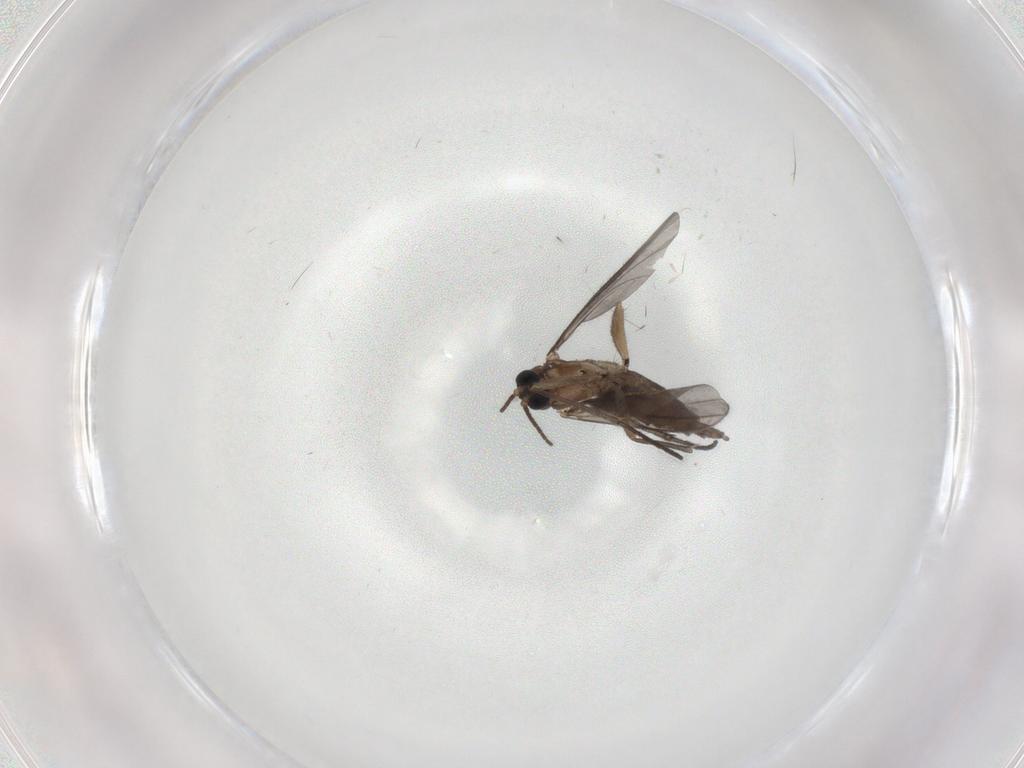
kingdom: Animalia
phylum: Arthropoda
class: Insecta
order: Diptera
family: Sciaridae
